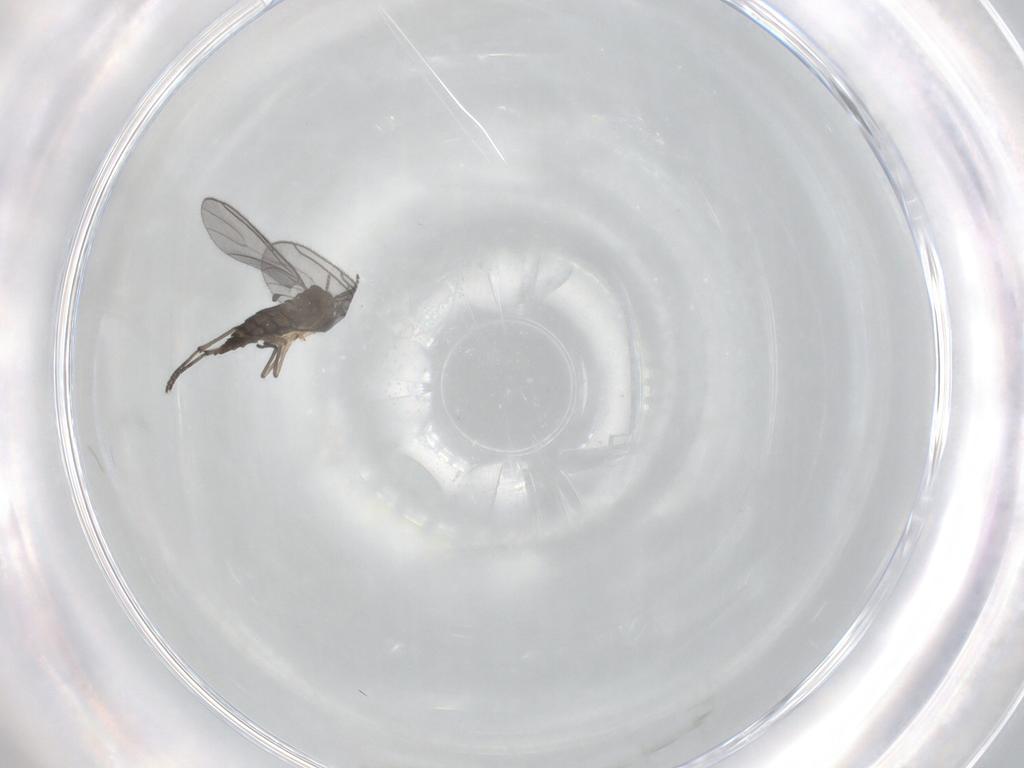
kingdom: Animalia
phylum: Arthropoda
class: Insecta
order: Diptera
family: Sciaridae
